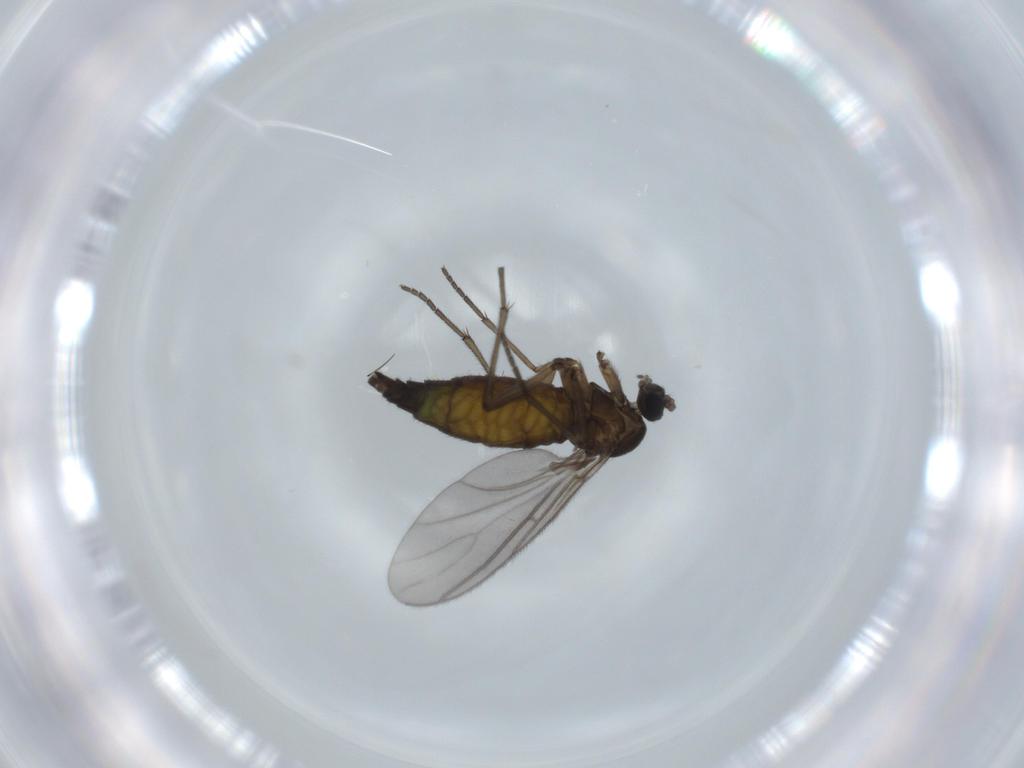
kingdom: Animalia
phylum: Arthropoda
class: Insecta
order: Diptera
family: Sciaridae
